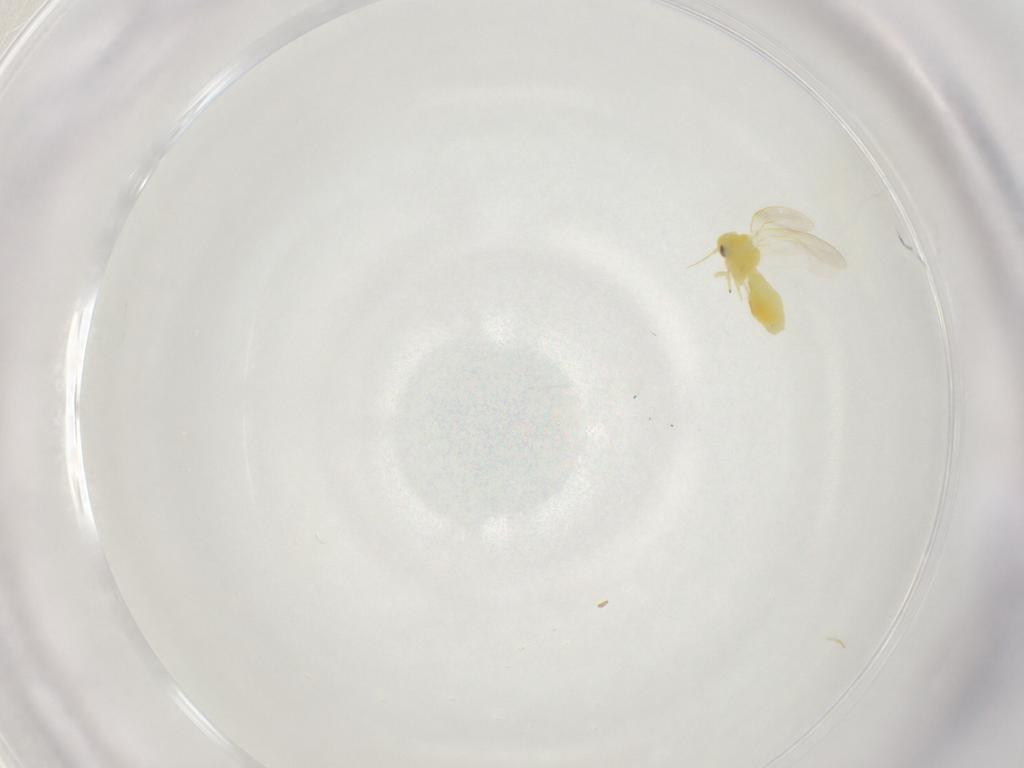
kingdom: Animalia
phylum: Arthropoda
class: Insecta
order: Hemiptera
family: Aleyrodidae
